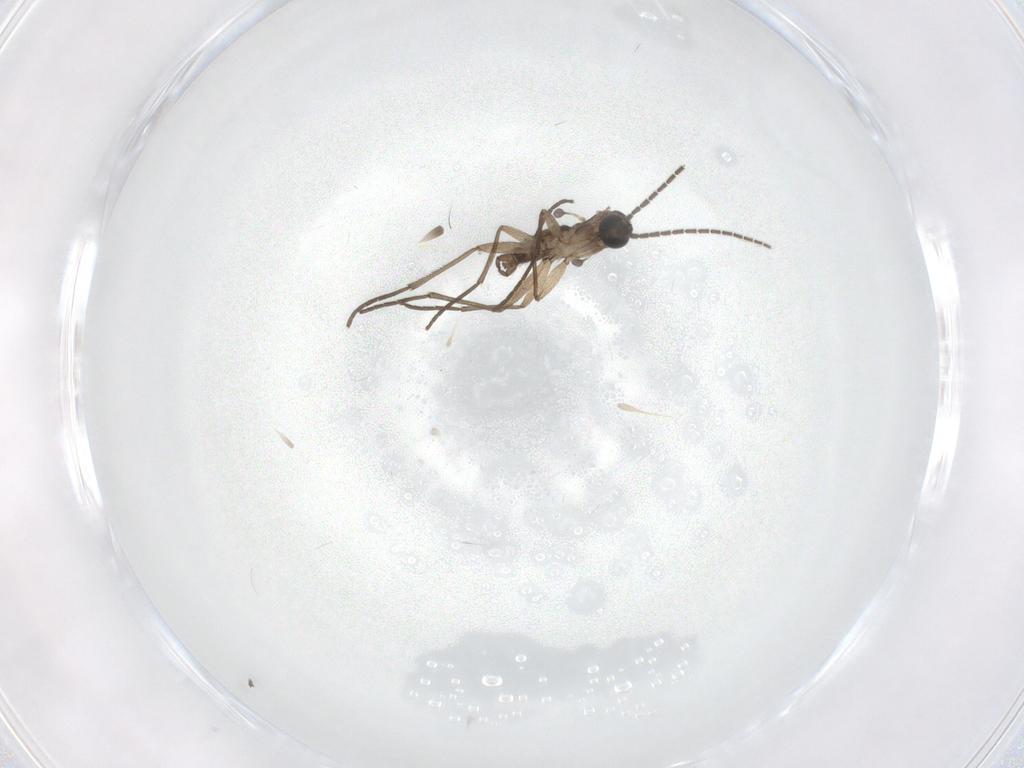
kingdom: Animalia
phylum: Arthropoda
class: Insecta
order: Diptera
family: Sciaridae
